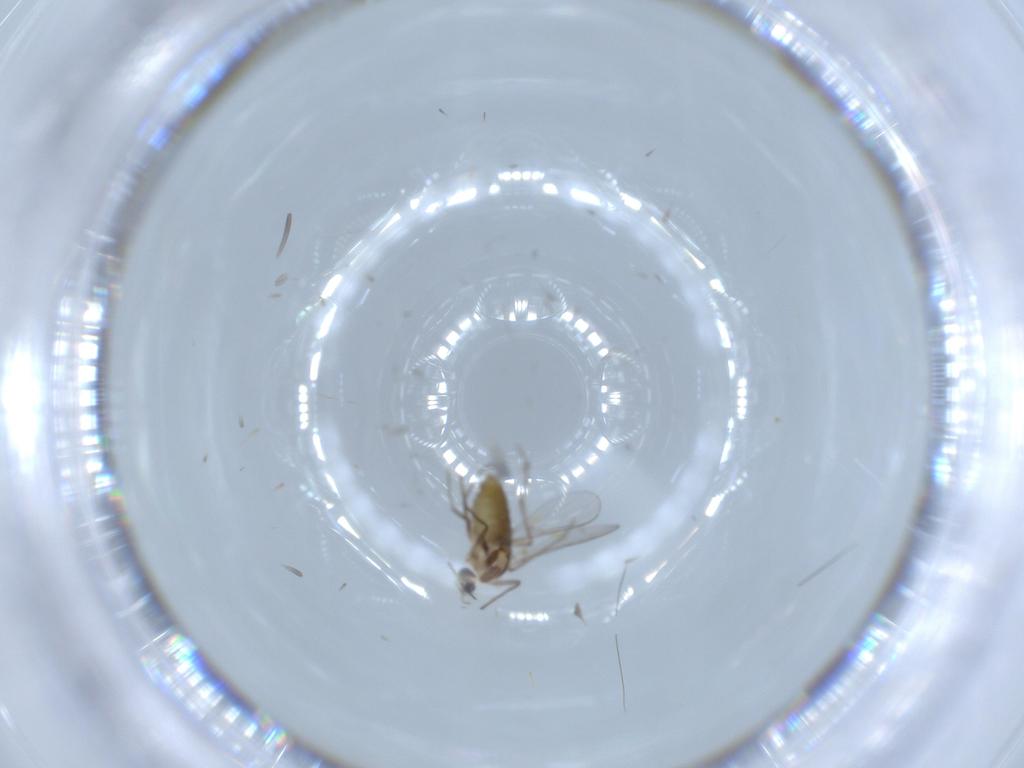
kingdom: Animalia
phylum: Arthropoda
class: Insecta
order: Diptera
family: Chironomidae
